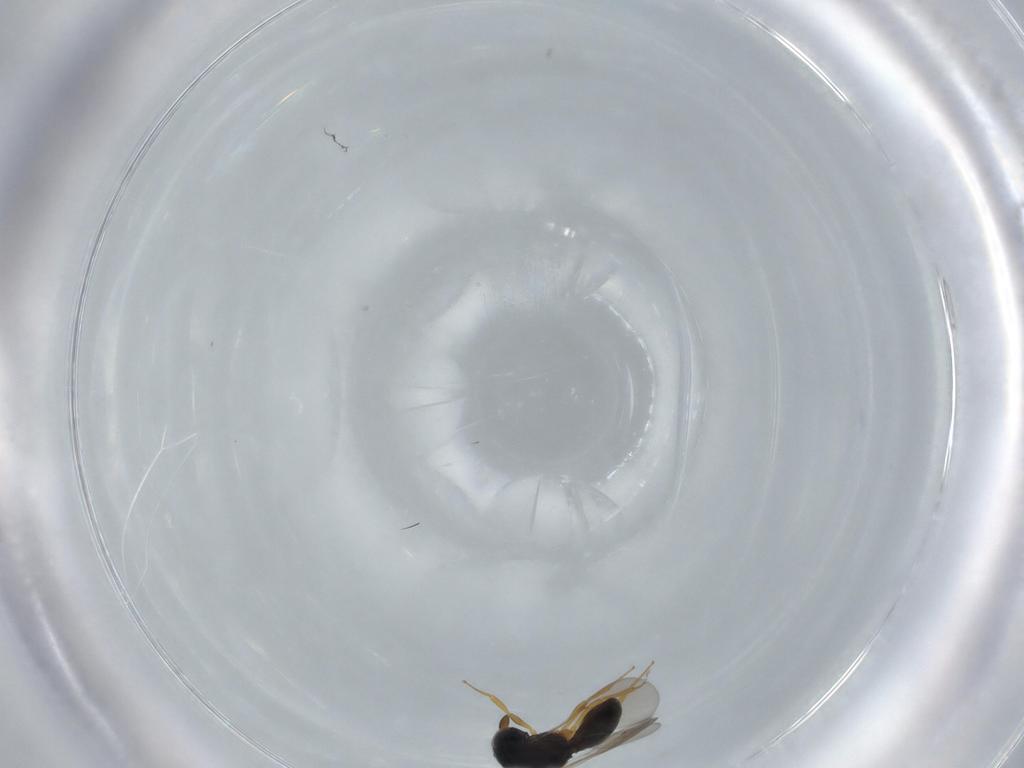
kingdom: Animalia
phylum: Arthropoda
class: Insecta
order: Hymenoptera
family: Scelionidae
